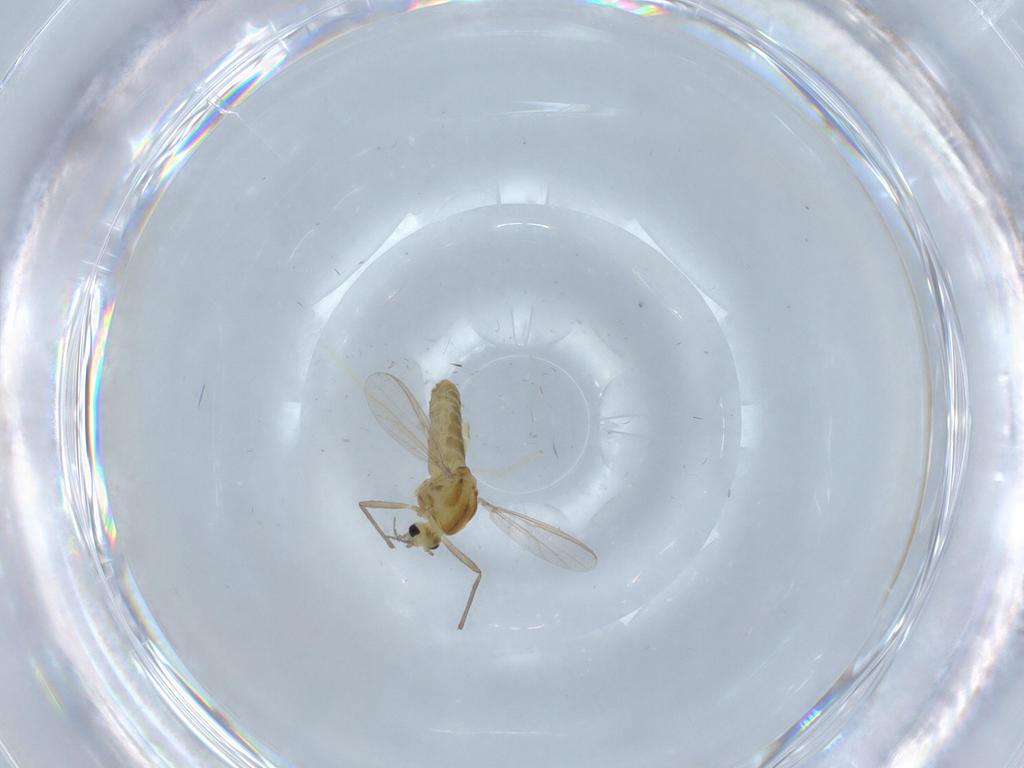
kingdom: Animalia
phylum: Arthropoda
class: Insecta
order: Diptera
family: Chironomidae
